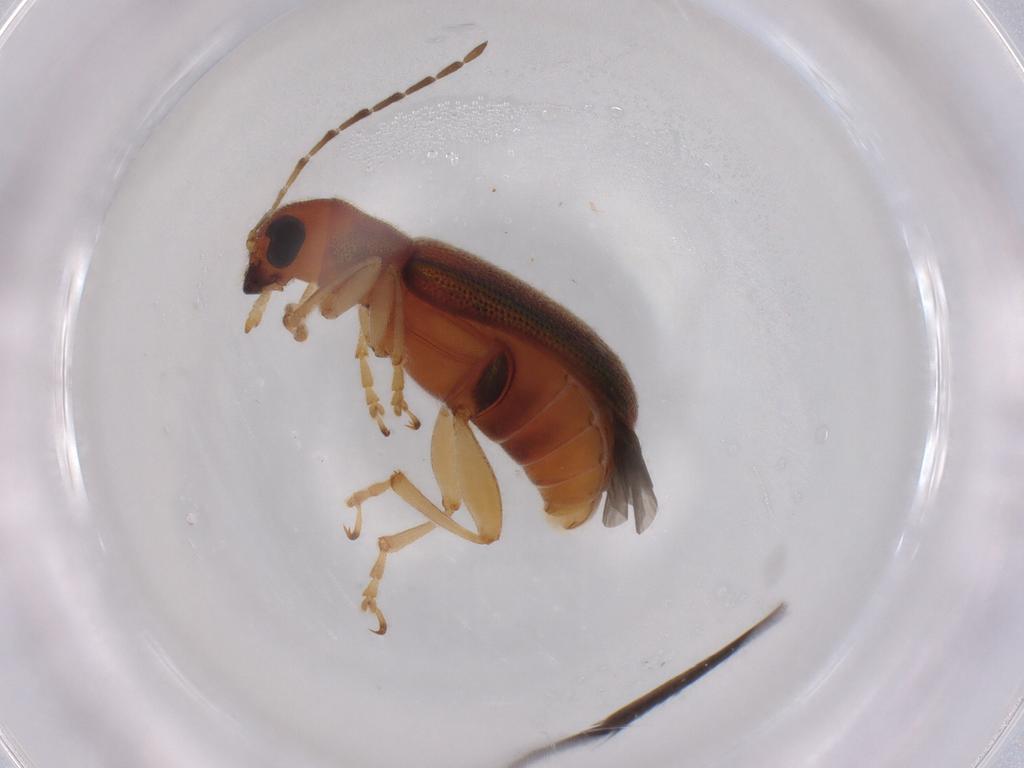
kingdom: Animalia
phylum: Arthropoda
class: Insecta
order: Coleoptera
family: Chrysomelidae
